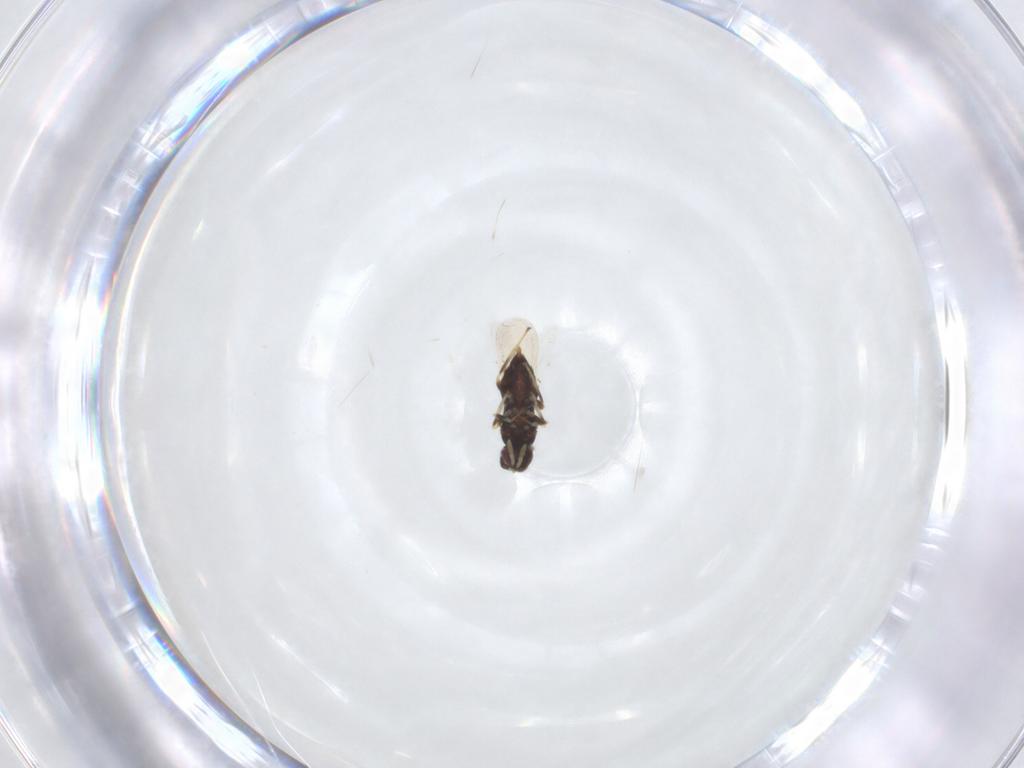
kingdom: Animalia
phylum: Arthropoda
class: Insecta
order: Hymenoptera
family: Aphelinidae
